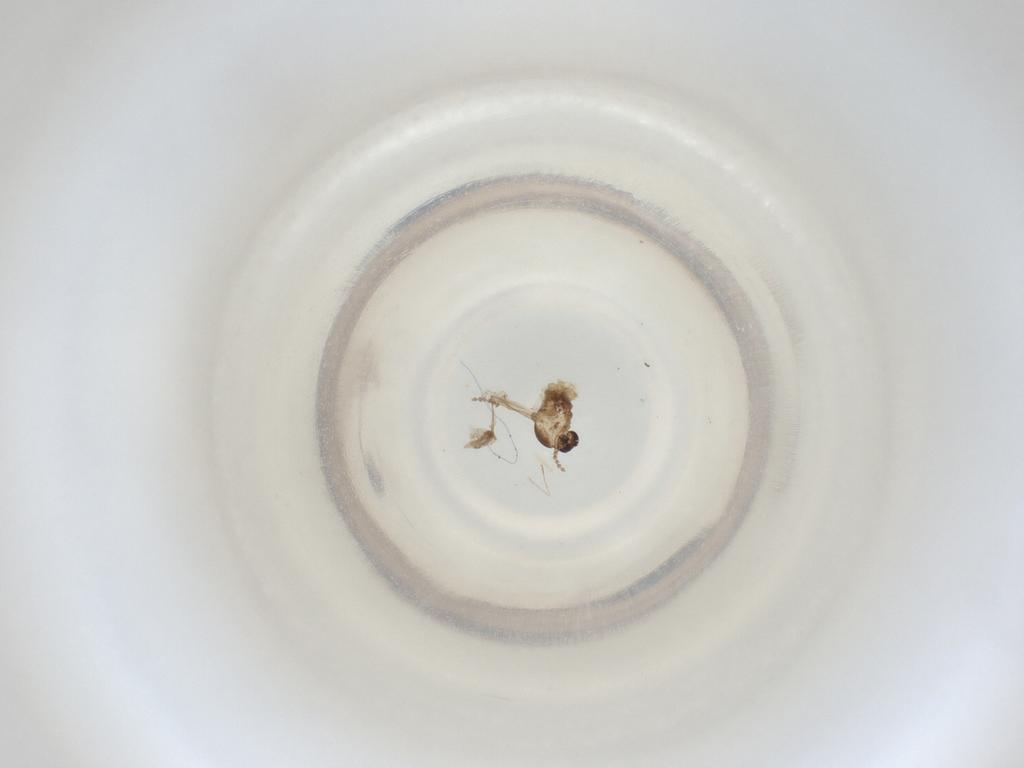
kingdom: Animalia
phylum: Arthropoda
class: Insecta
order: Diptera
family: Cecidomyiidae
